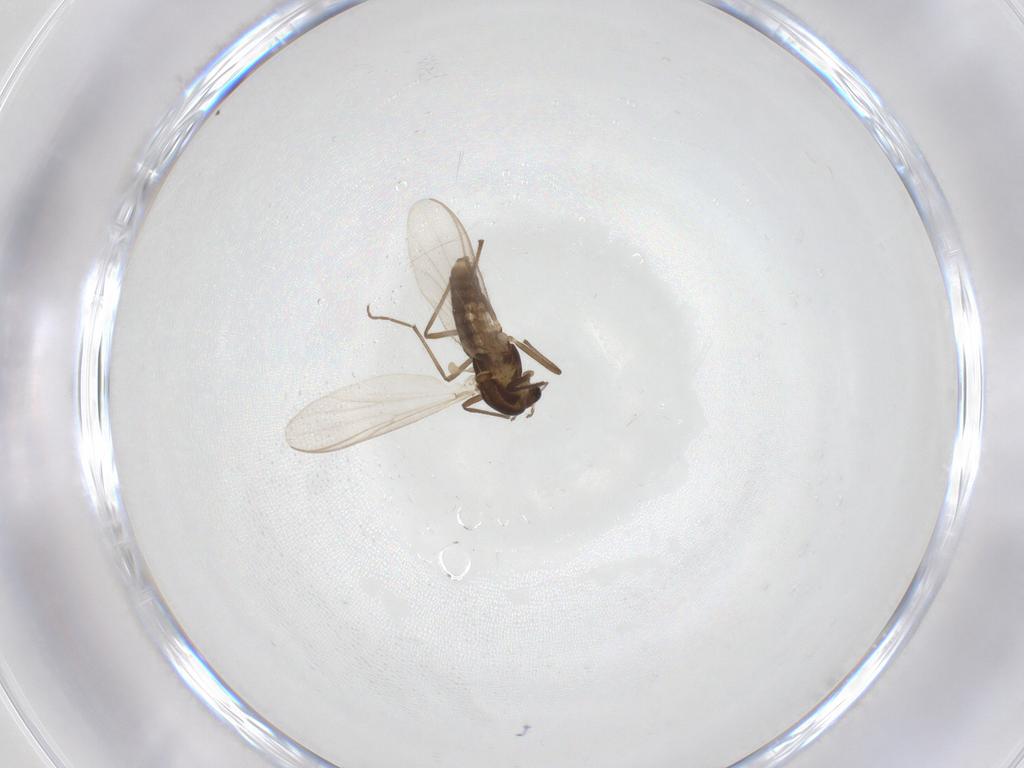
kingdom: Animalia
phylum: Arthropoda
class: Insecta
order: Diptera
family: Chironomidae
